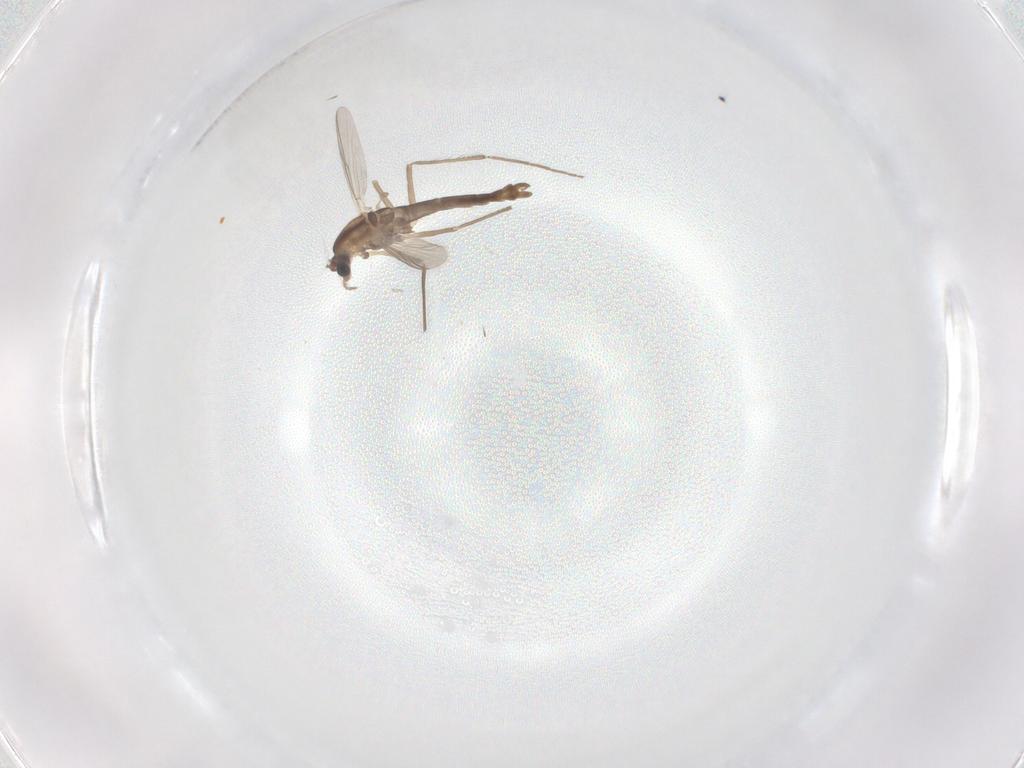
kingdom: Animalia
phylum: Arthropoda
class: Insecta
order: Diptera
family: Chironomidae
